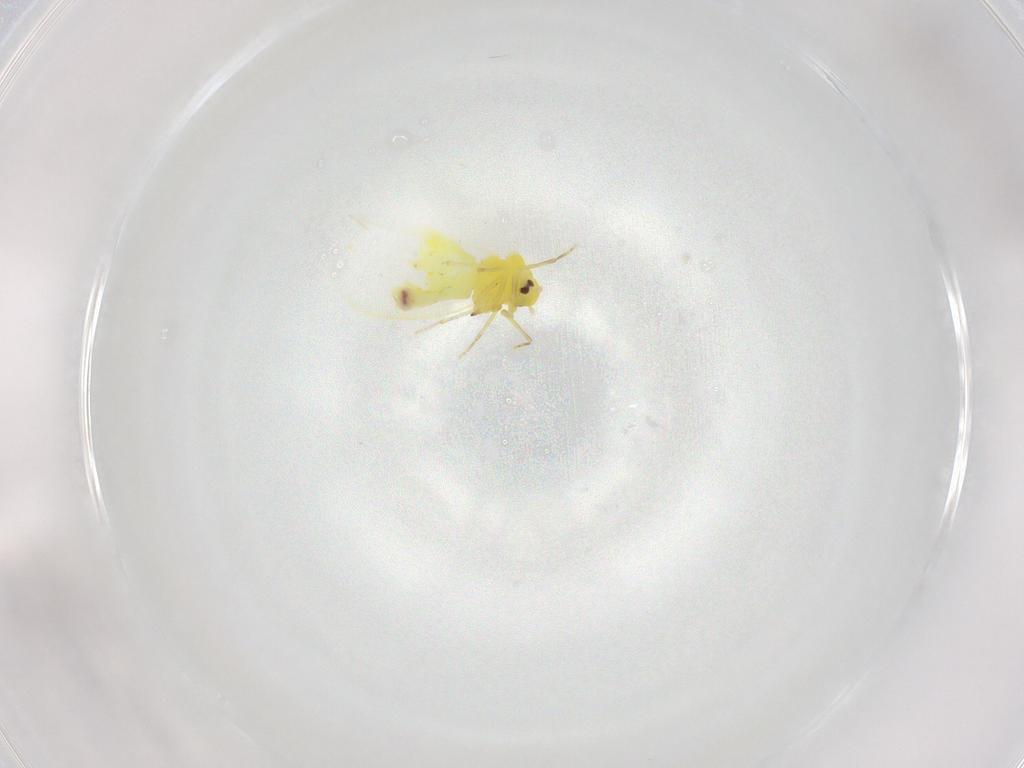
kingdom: Animalia
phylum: Arthropoda
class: Insecta
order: Hemiptera
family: Aleyrodidae
